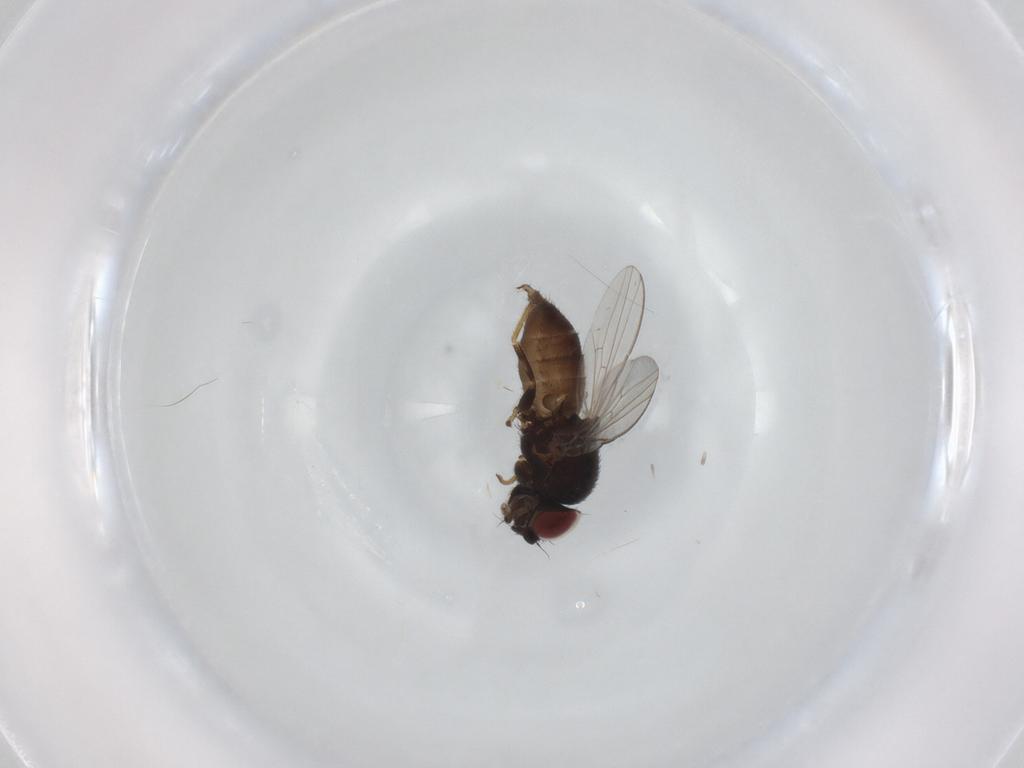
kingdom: Animalia
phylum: Arthropoda
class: Insecta
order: Diptera
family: Milichiidae
